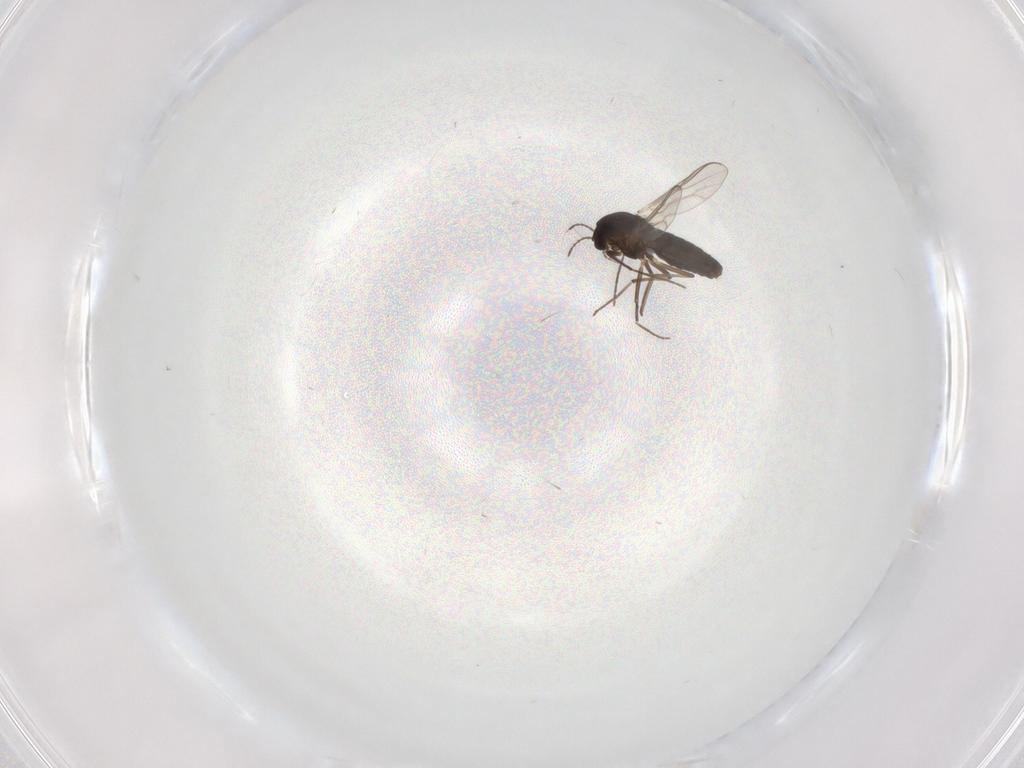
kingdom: Animalia
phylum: Arthropoda
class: Insecta
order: Diptera
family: Chironomidae
